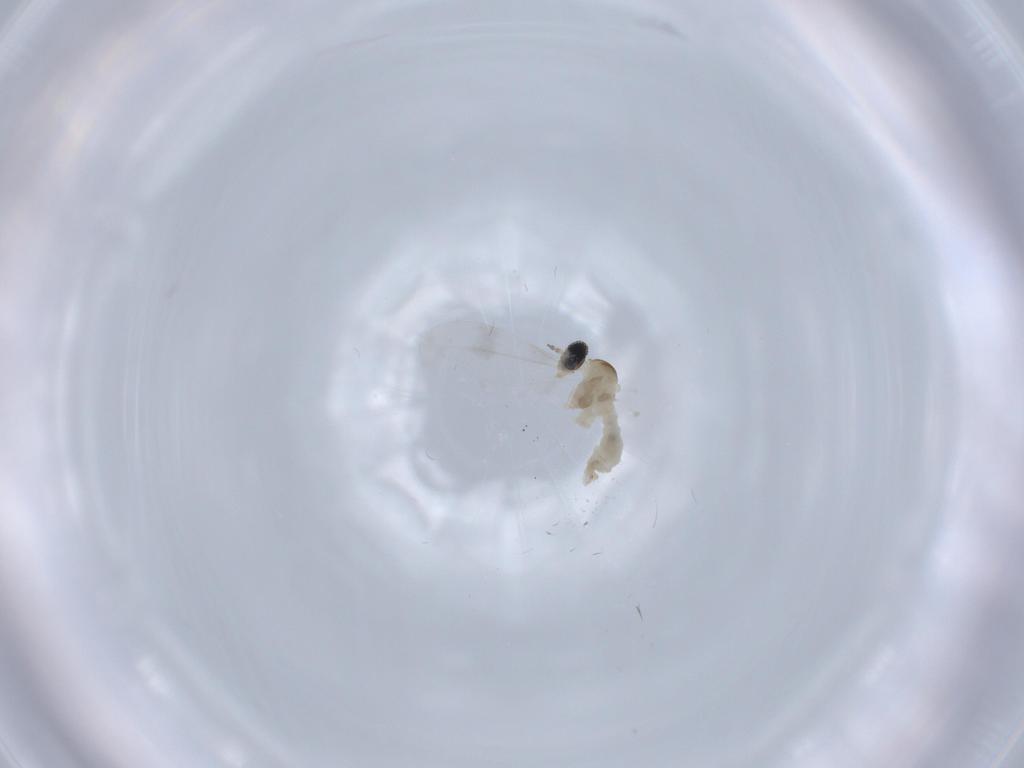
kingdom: Animalia
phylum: Arthropoda
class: Insecta
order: Diptera
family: Cecidomyiidae
